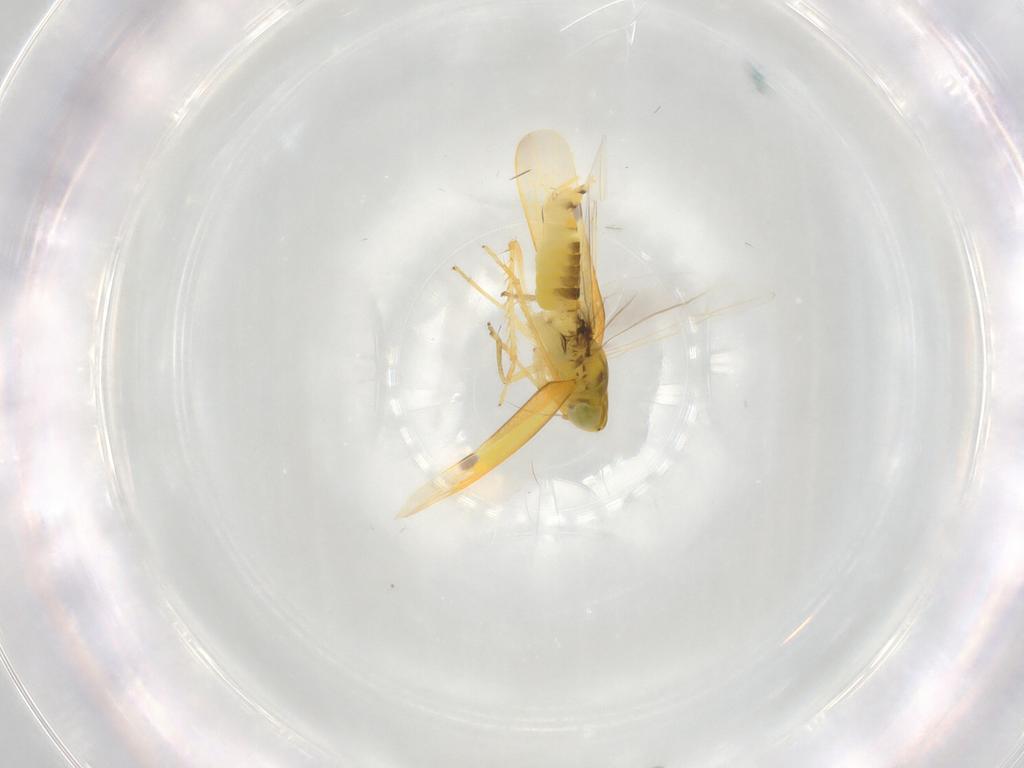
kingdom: Animalia
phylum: Arthropoda
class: Insecta
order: Hemiptera
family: Cicadellidae
